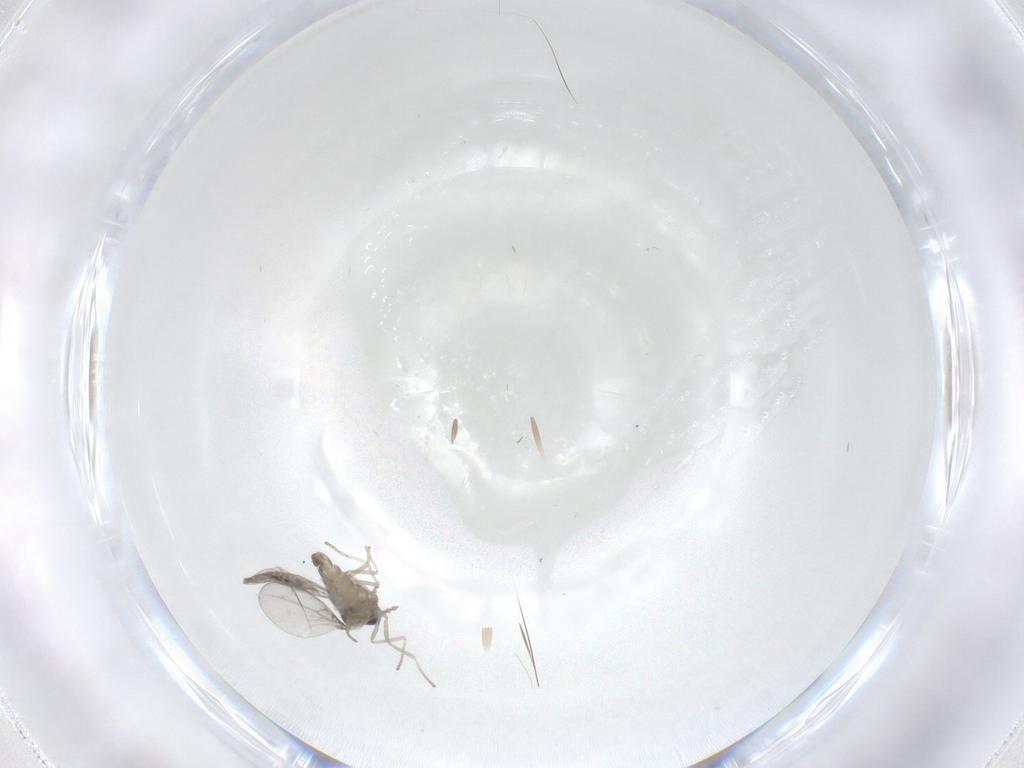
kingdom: Animalia
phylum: Arthropoda
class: Insecta
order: Diptera
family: Cecidomyiidae
